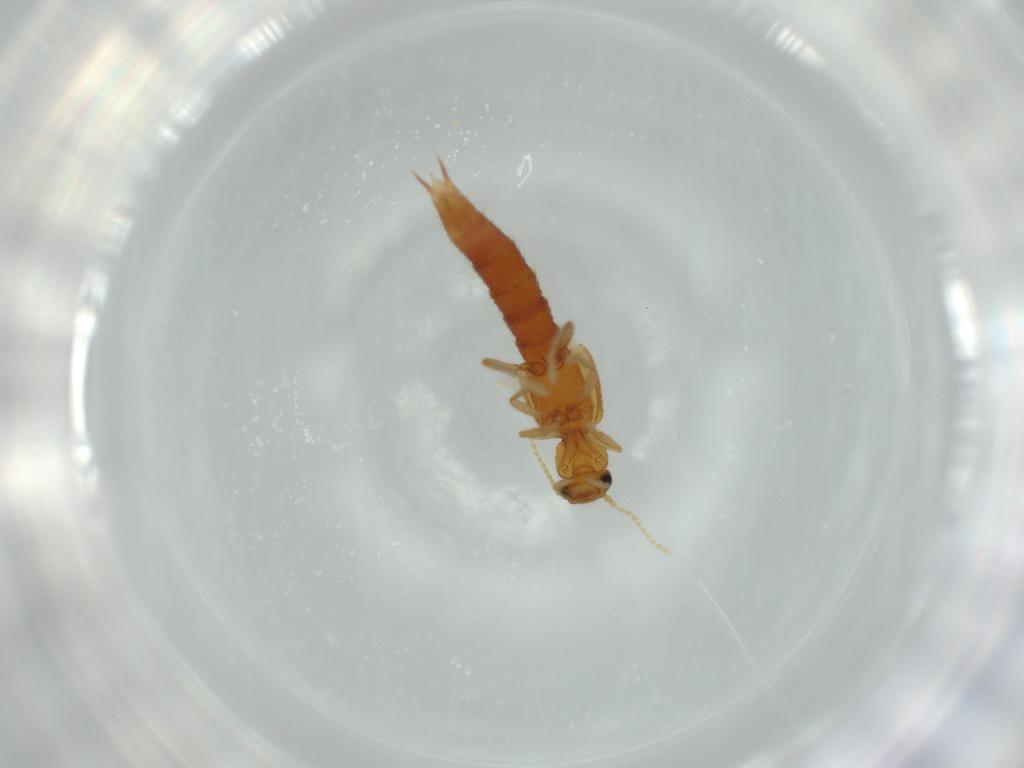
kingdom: Animalia
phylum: Arthropoda
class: Insecta
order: Coleoptera
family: Staphylinidae
